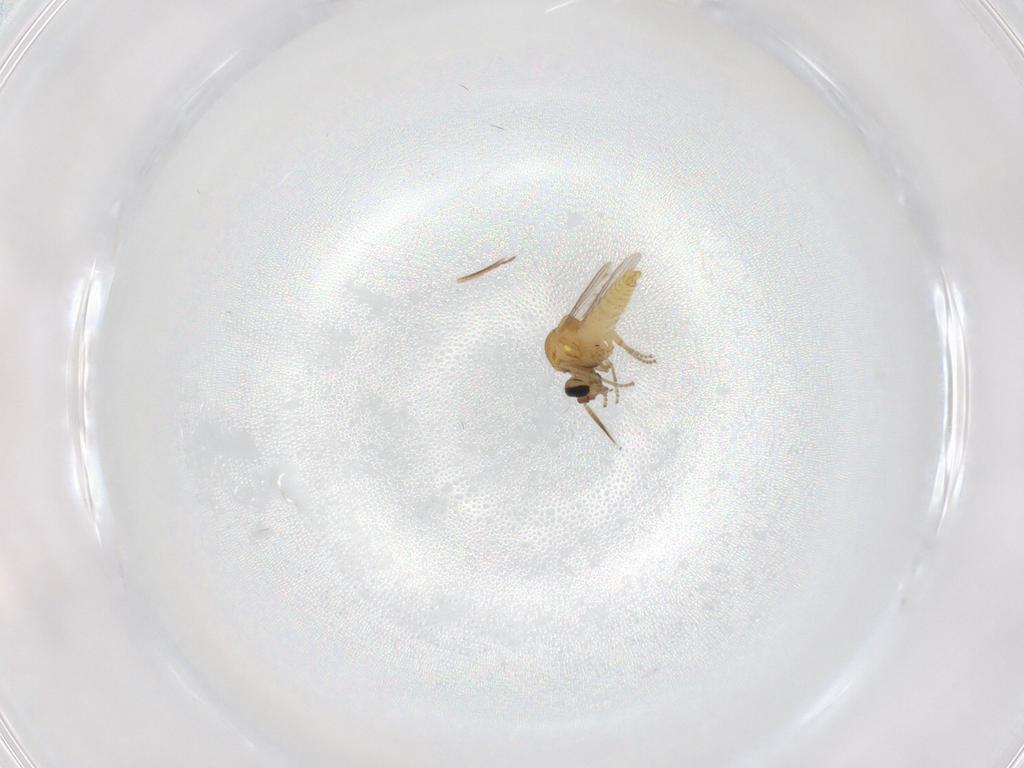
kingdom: Animalia
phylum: Arthropoda
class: Insecta
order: Diptera
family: Ceratopogonidae
